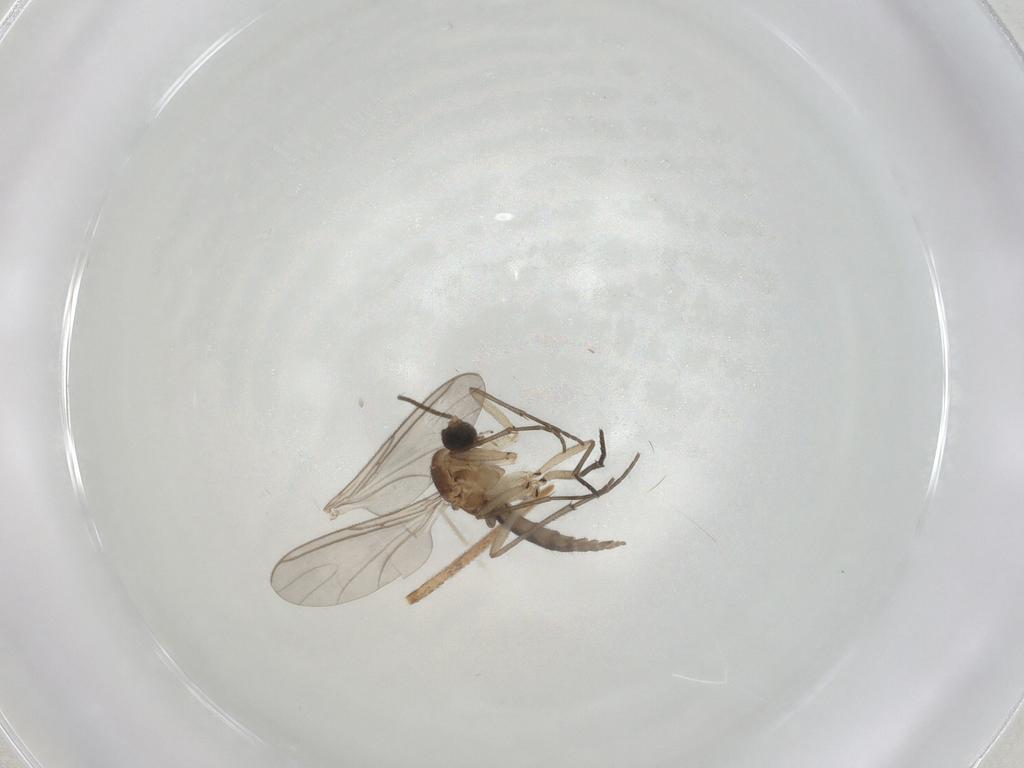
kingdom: Animalia
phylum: Arthropoda
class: Insecta
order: Diptera
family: Sciaridae
